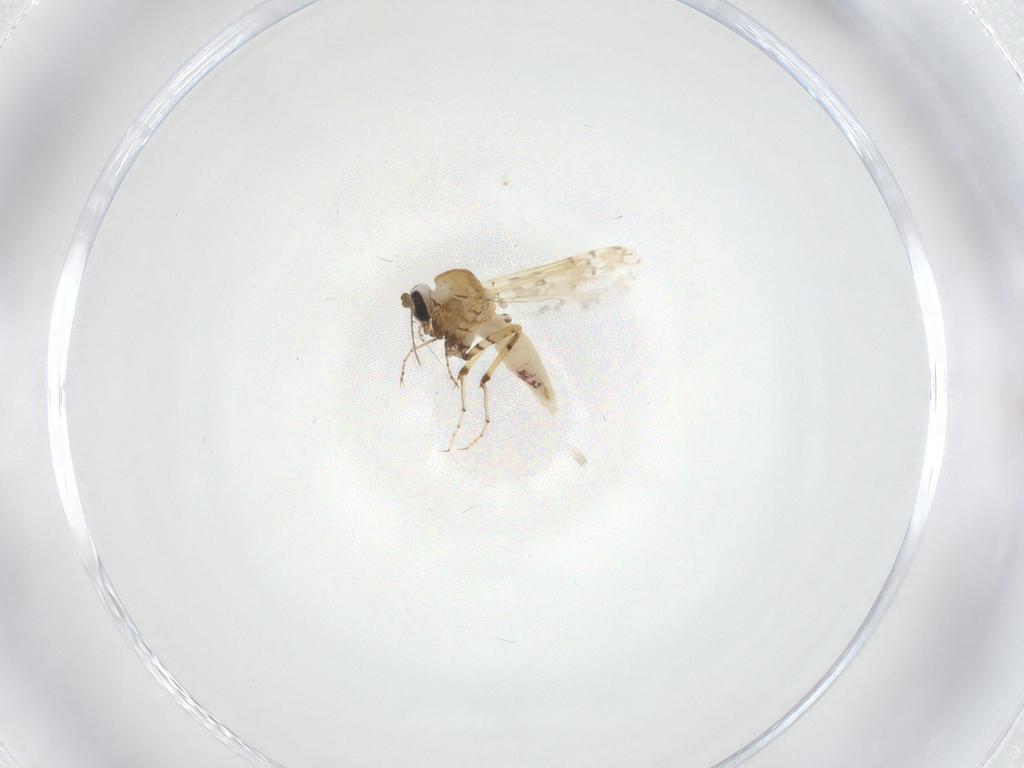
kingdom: Animalia
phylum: Arthropoda
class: Insecta
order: Diptera
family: Ceratopogonidae
